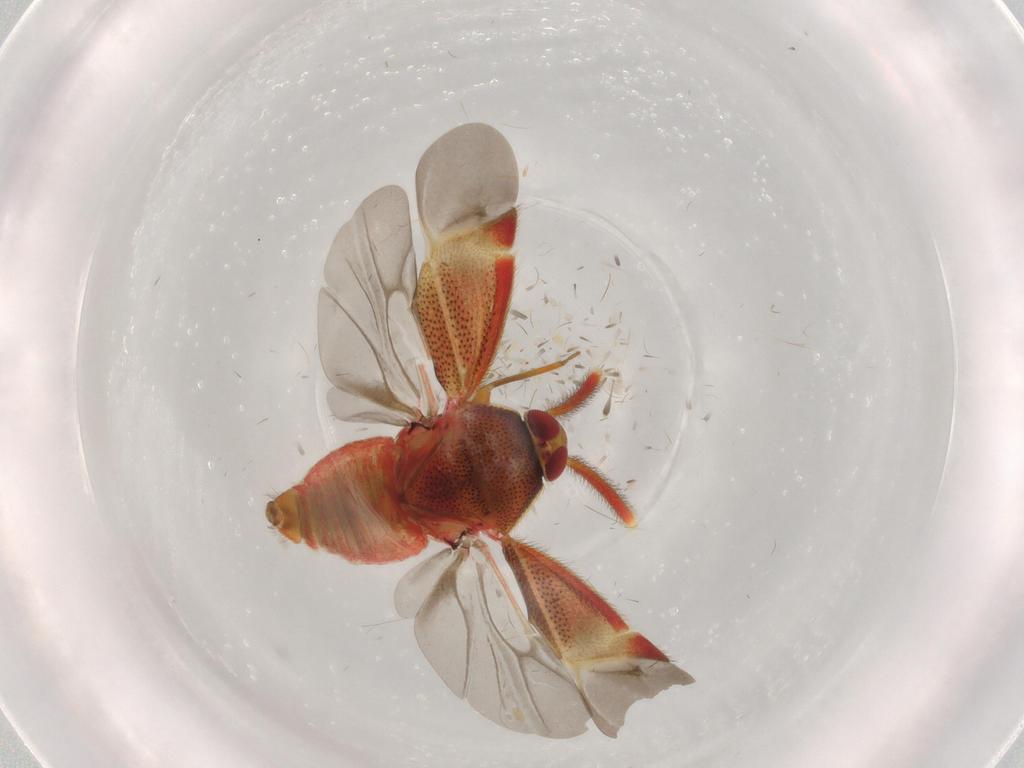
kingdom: Animalia
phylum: Arthropoda
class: Insecta
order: Hemiptera
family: Miridae
